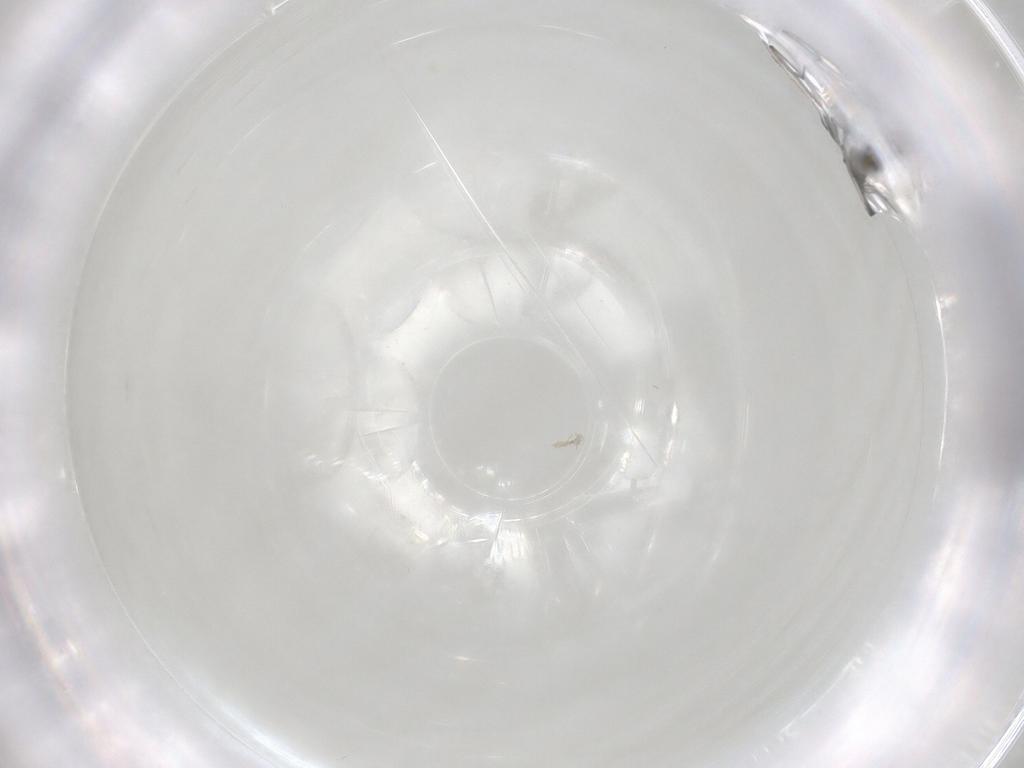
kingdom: Animalia
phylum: Arthropoda
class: Insecta
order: Diptera
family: Chironomidae
